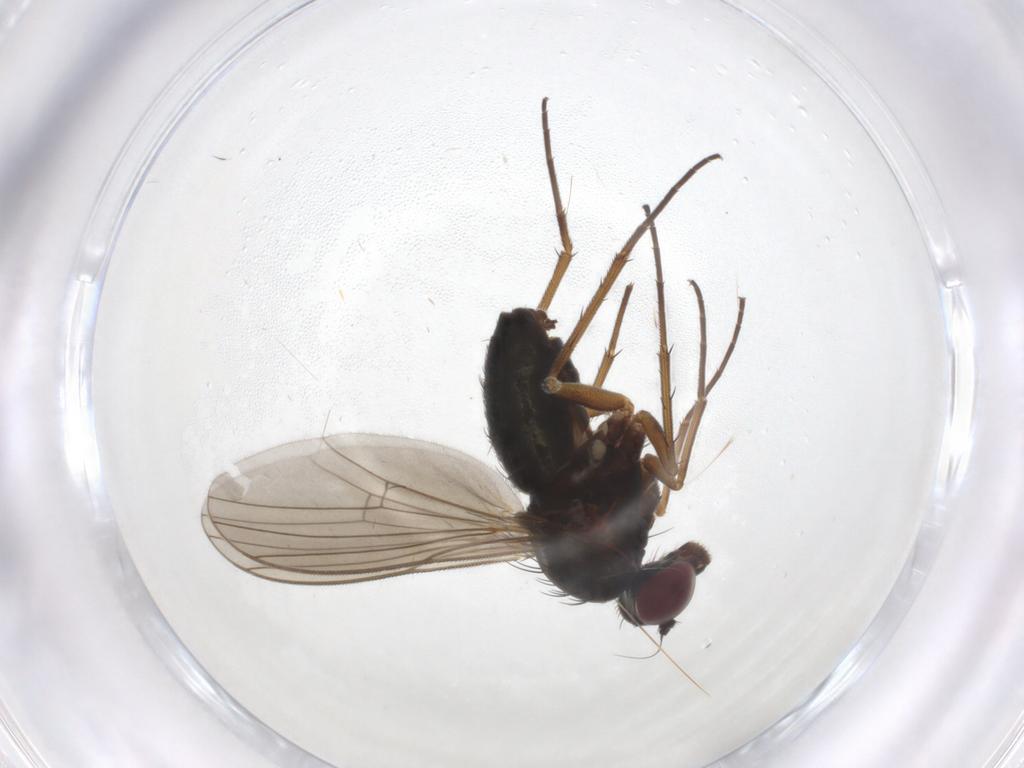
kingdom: Animalia
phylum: Arthropoda
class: Insecta
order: Diptera
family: Dolichopodidae
